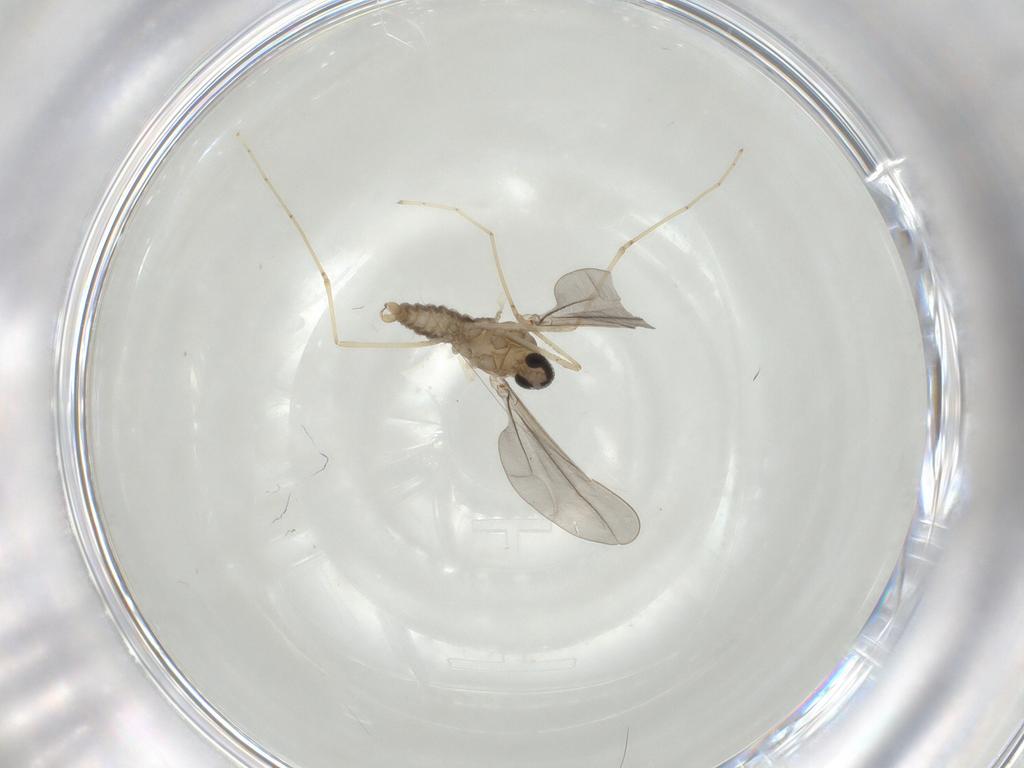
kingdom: Animalia
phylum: Arthropoda
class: Insecta
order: Diptera
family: Cecidomyiidae
